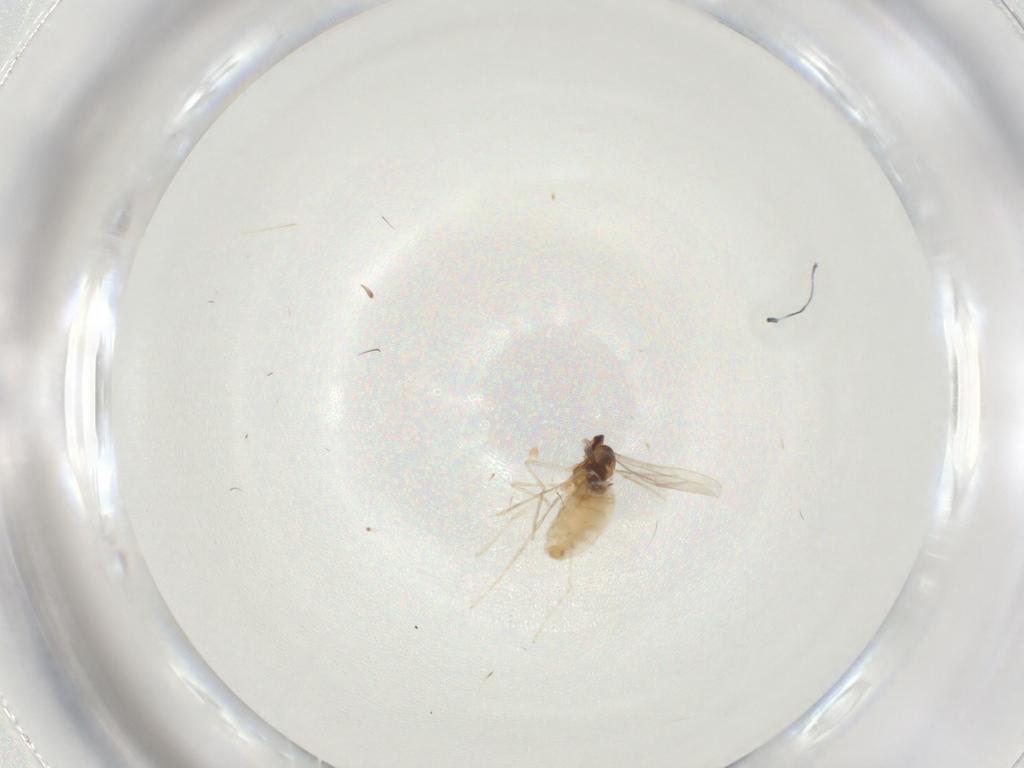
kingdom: Animalia
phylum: Arthropoda
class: Insecta
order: Diptera
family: Cecidomyiidae
